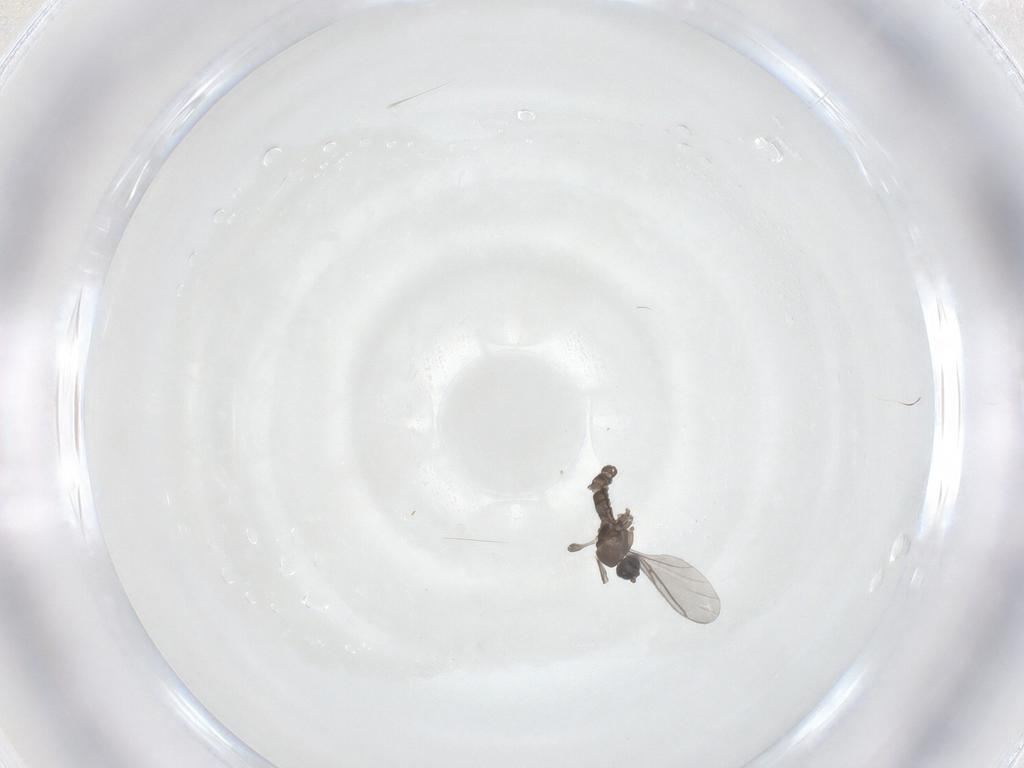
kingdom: Animalia
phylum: Arthropoda
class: Insecta
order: Diptera
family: Sciaridae
